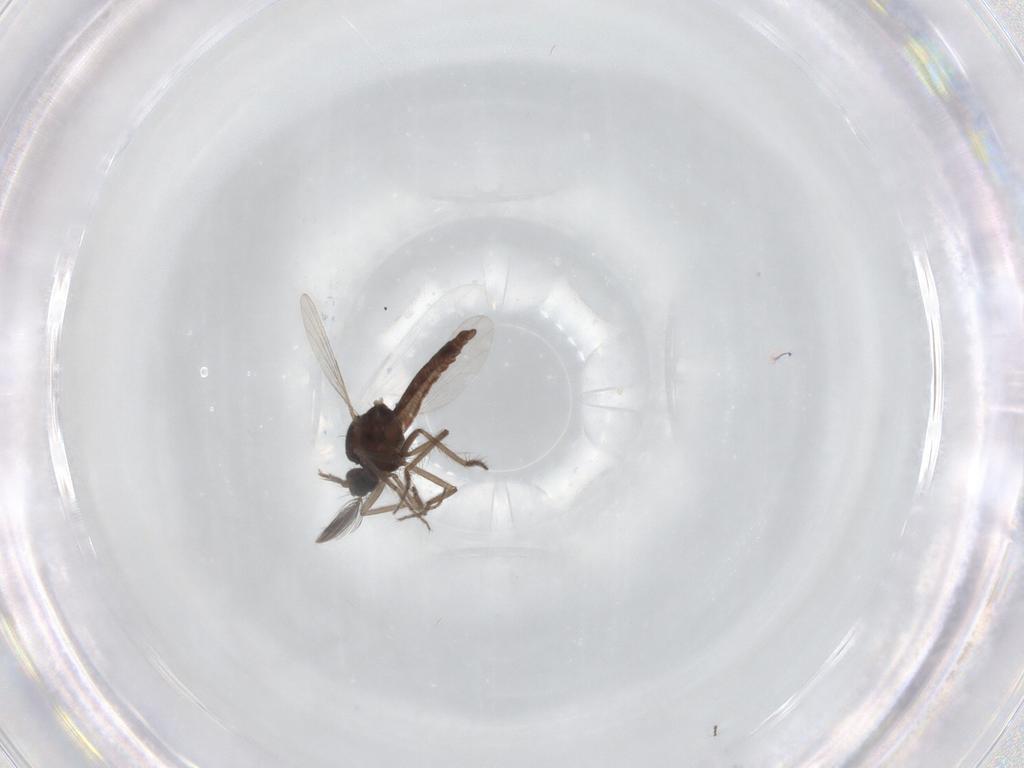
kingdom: Animalia
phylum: Arthropoda
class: Insecta
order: Diptera
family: Ceratopogonidae
